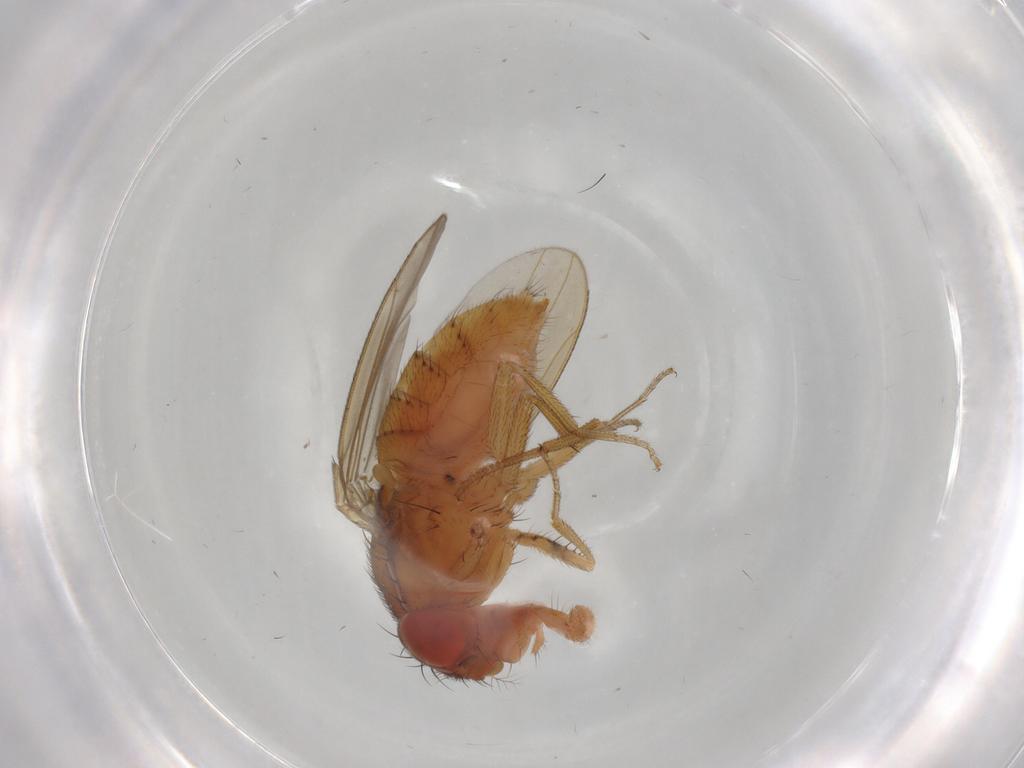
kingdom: Animalia
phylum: Arthropoda
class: Insecta
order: Diptera
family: Drosophilidae
